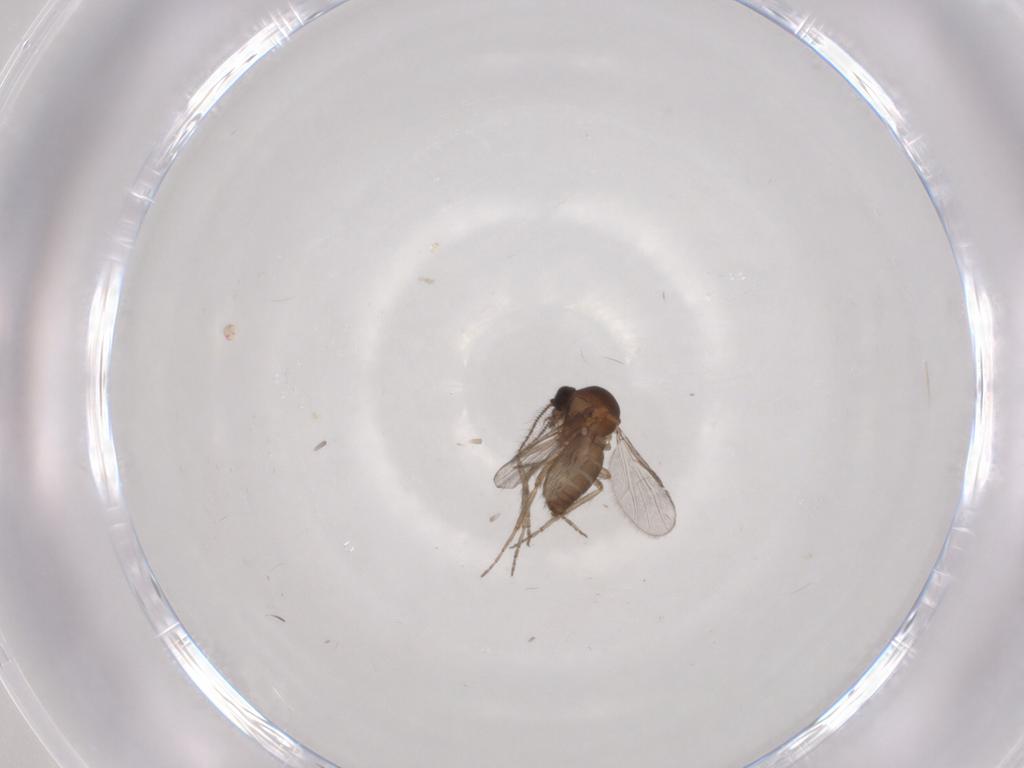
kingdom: Animalia
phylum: Arthropoda
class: Insecta
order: Diptera
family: Ceratopogonidae
